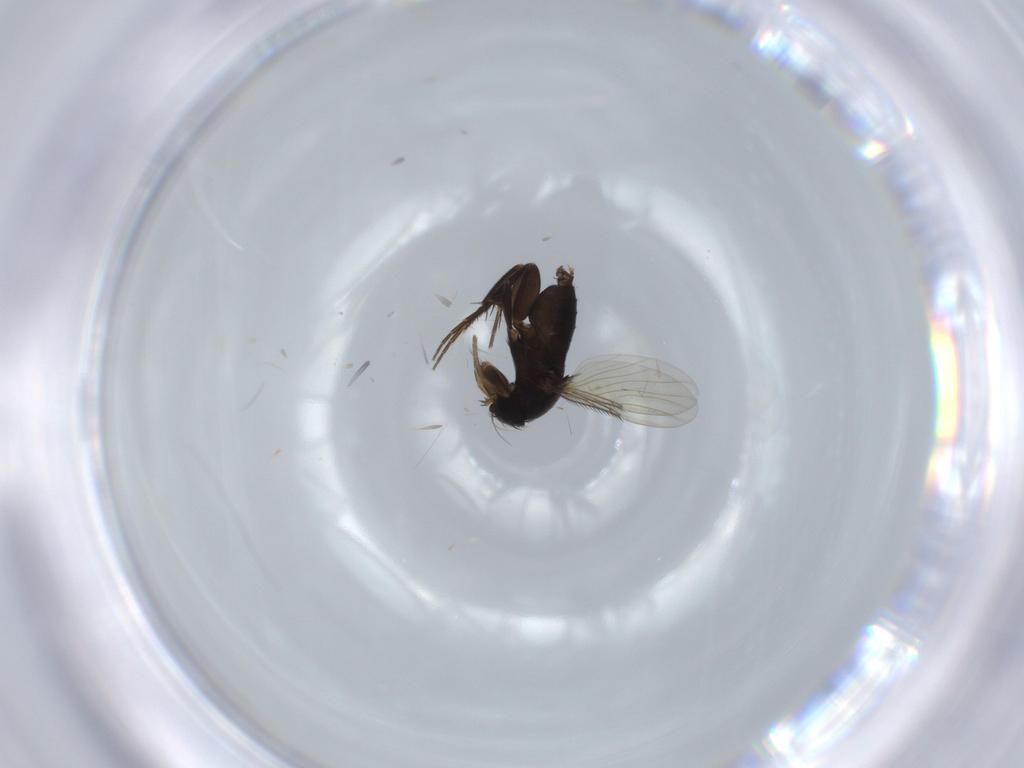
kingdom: Animalia
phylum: Arthropoda
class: Insecta
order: Diptera
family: Phoridae
